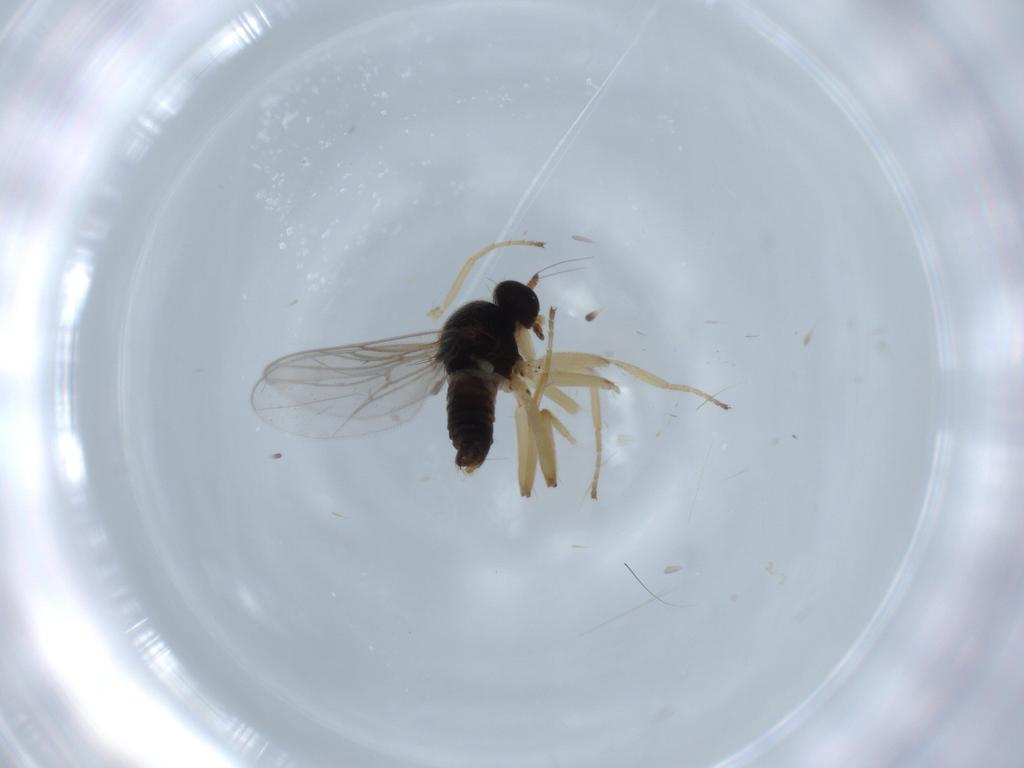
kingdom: Animalia
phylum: Arthropoda
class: Insecta
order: Diptera
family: Hybotidae
